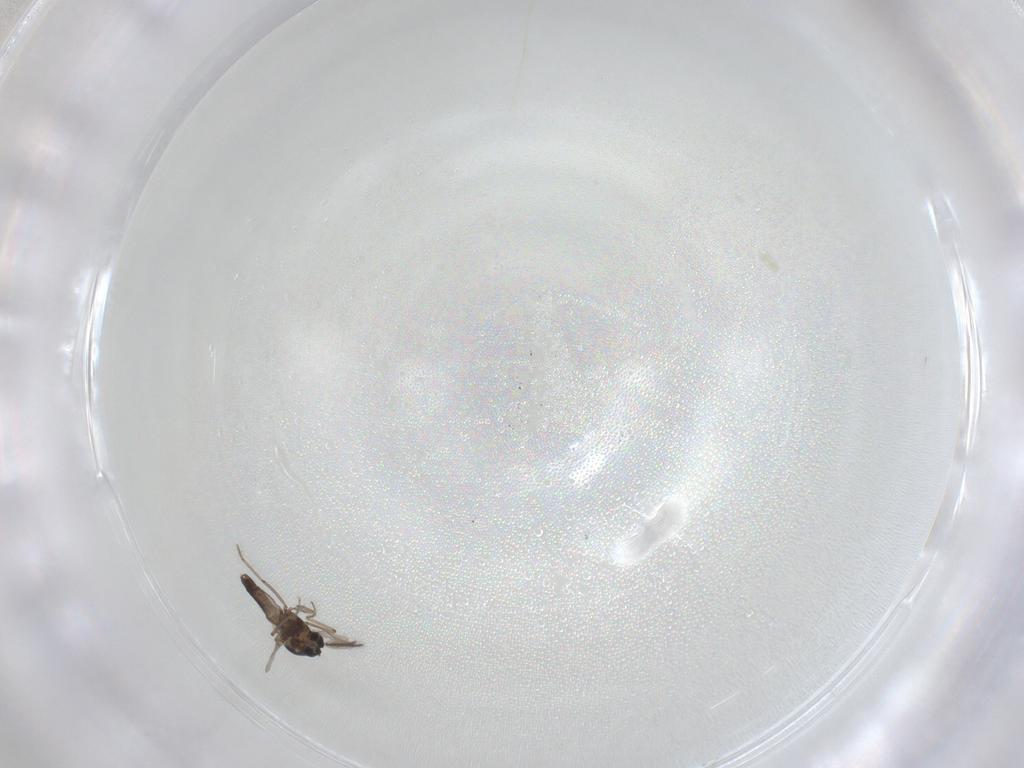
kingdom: Animalia
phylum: Arthropoda
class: Insecta
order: Diptera
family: Ceratopogonidae
